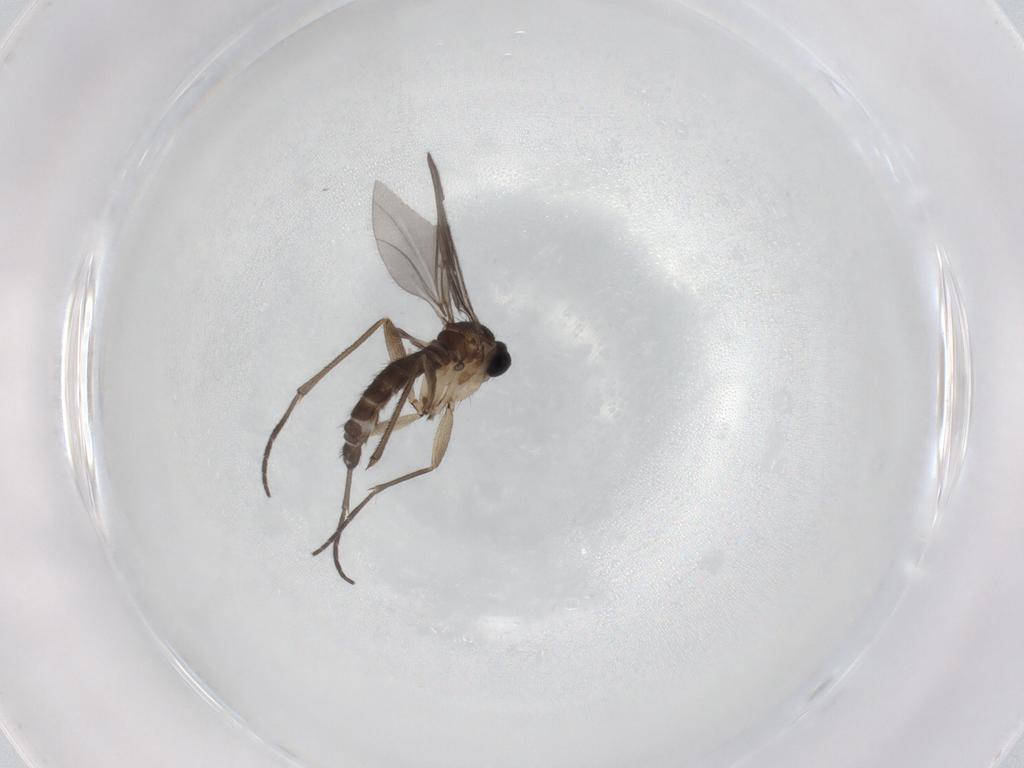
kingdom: Animalia
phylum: Arthropoda
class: Insecta
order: Diptera
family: Sciaridae
